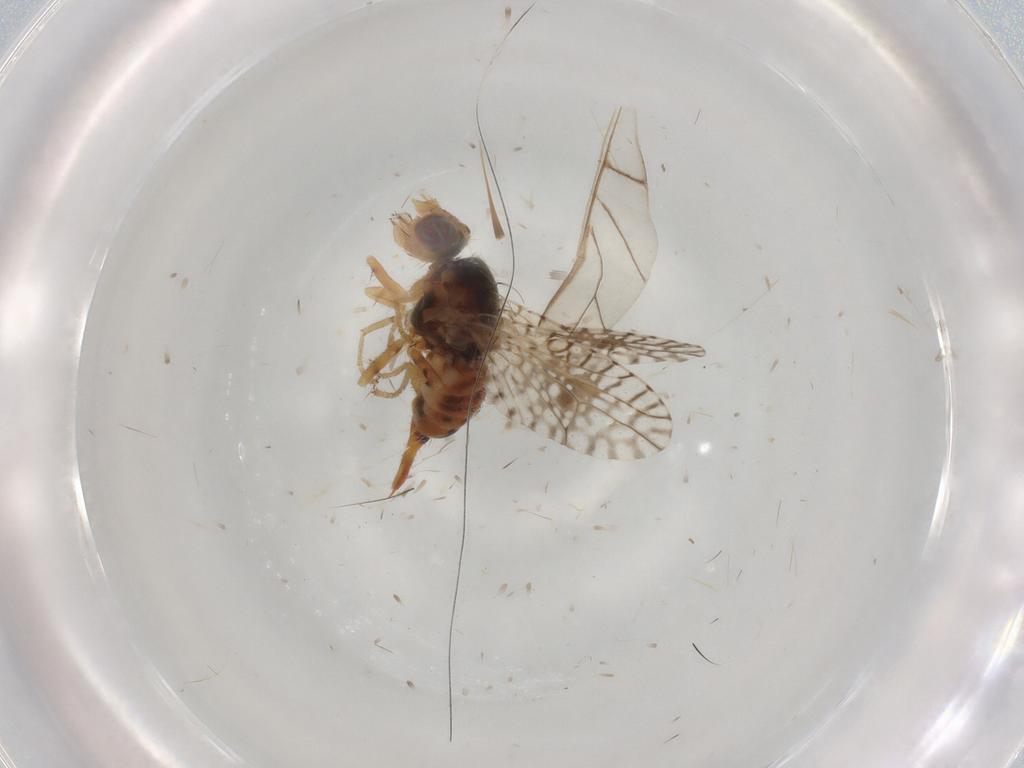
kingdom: Animalia
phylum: Arthropoda
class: Insecta
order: Diptera
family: Tephritidae
